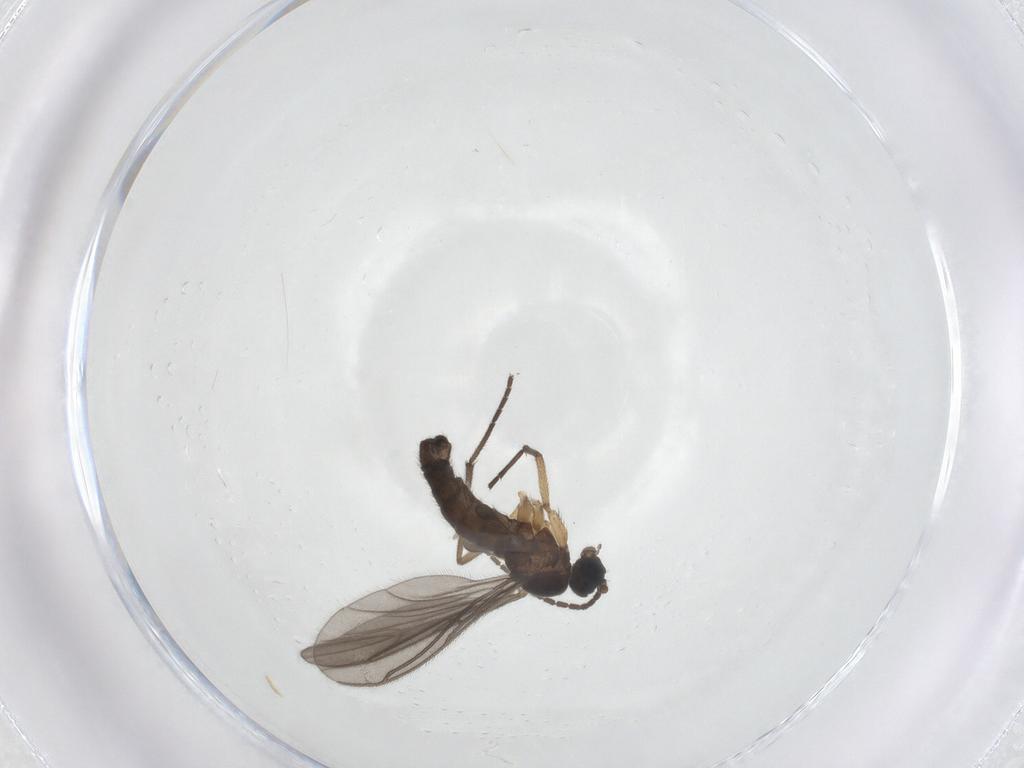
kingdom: Animalia
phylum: Arthropoda
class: Insecta
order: Diptera
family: Sciaridae
